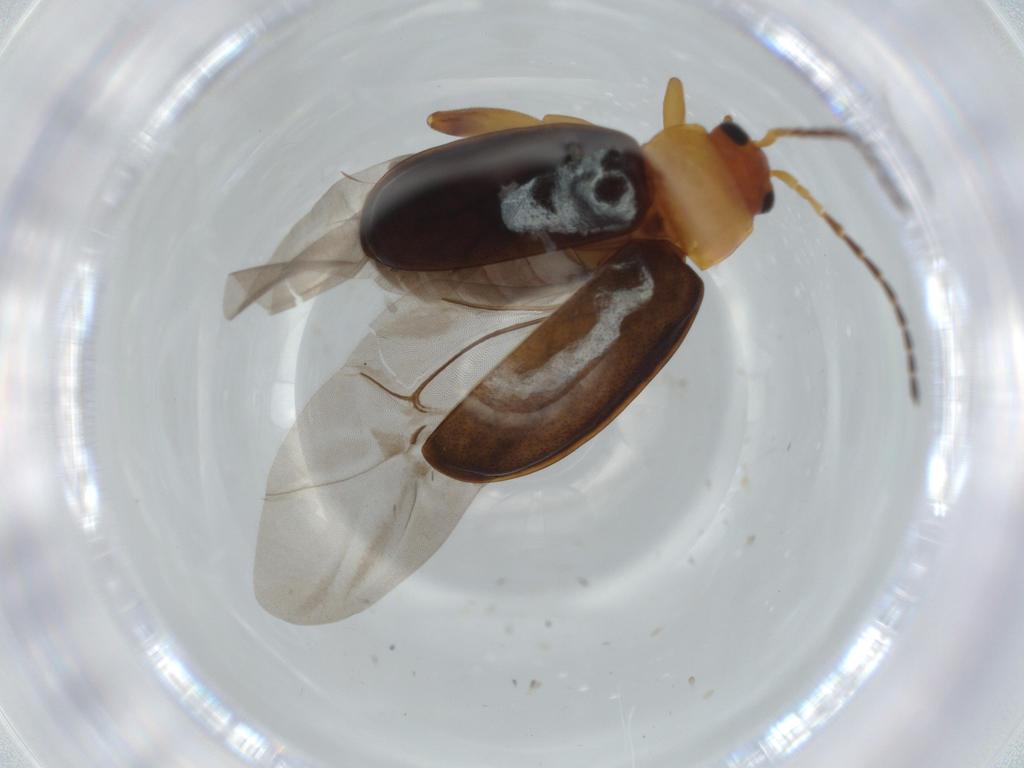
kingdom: Animalia
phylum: Arthropoda
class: Insecta
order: Coleoptera
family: Chrysomelidae
